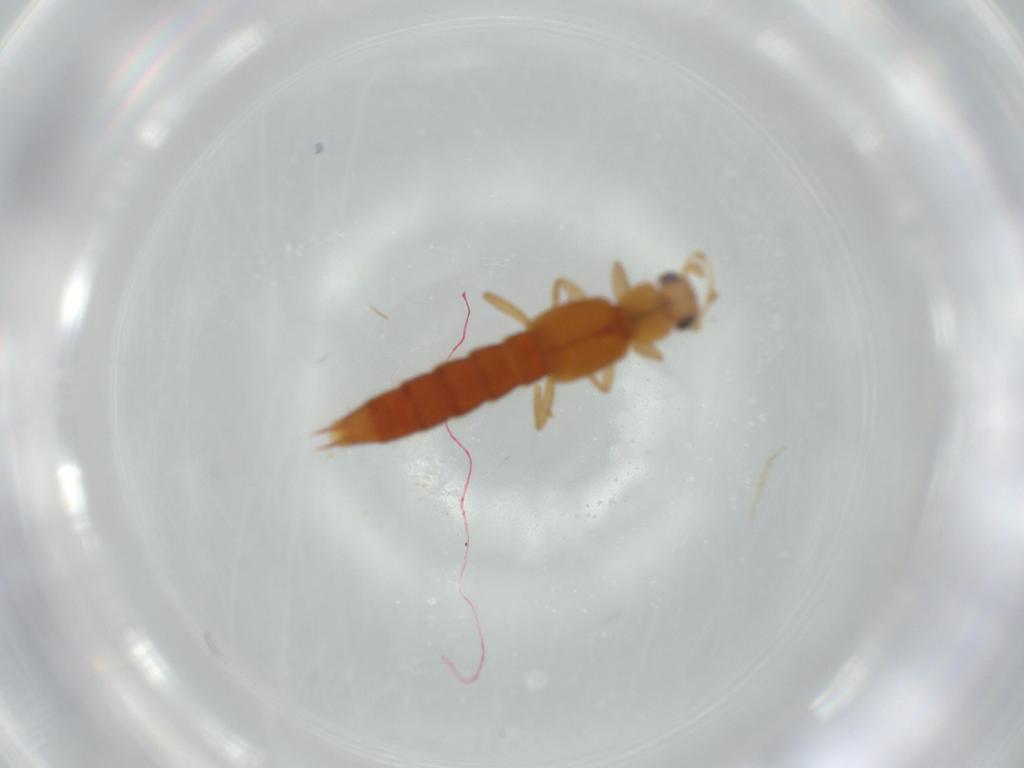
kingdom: Animalia
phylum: Arthropoda
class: Insecta
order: Coleoptera
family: Staphylinidae
